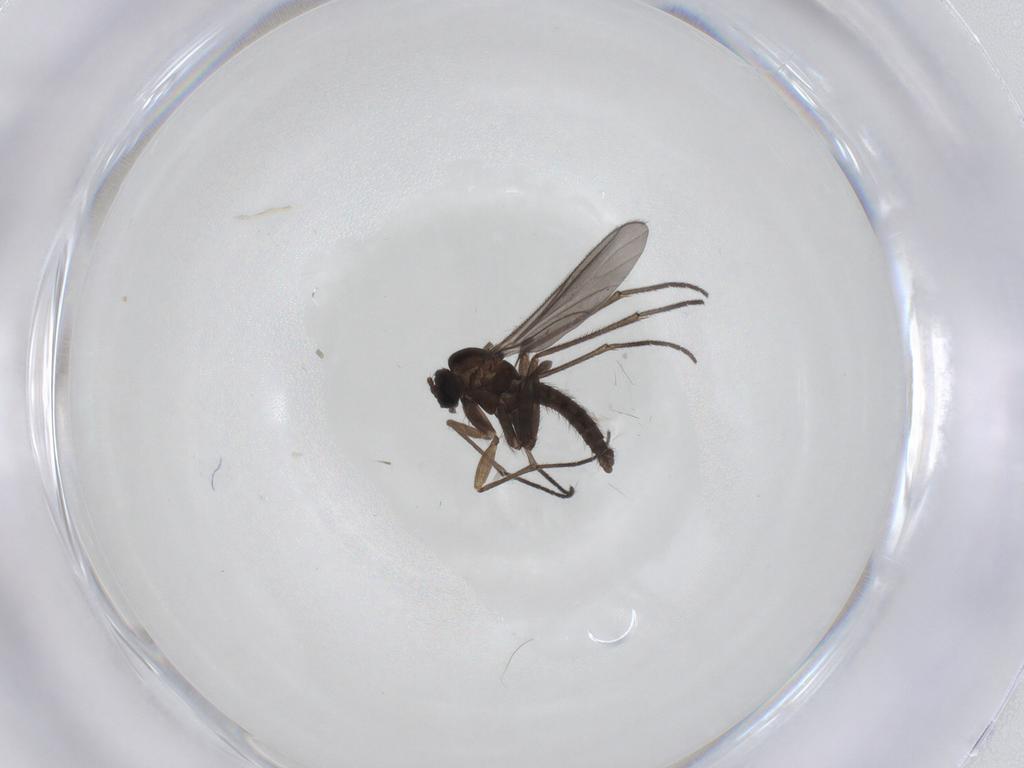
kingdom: Animalia
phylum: Arthropoda
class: Insecta
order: Diptera
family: Sciaridae
